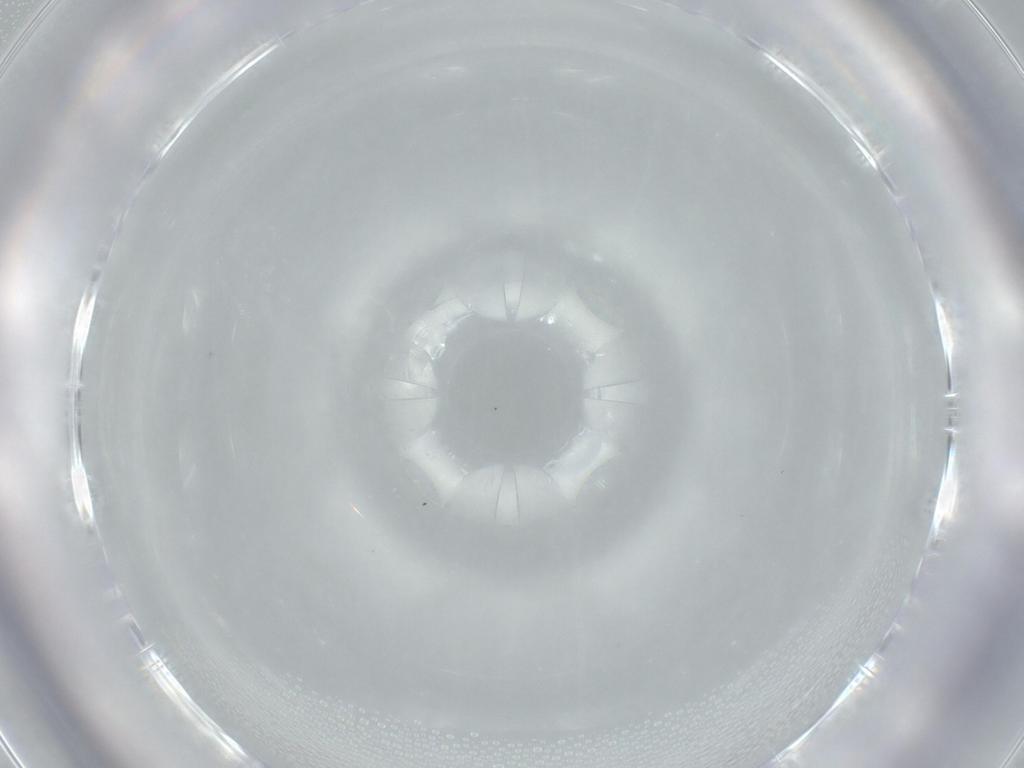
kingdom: Animalia
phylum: Arthropoda
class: Arachnida
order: Araneae
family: Linyphiidae
